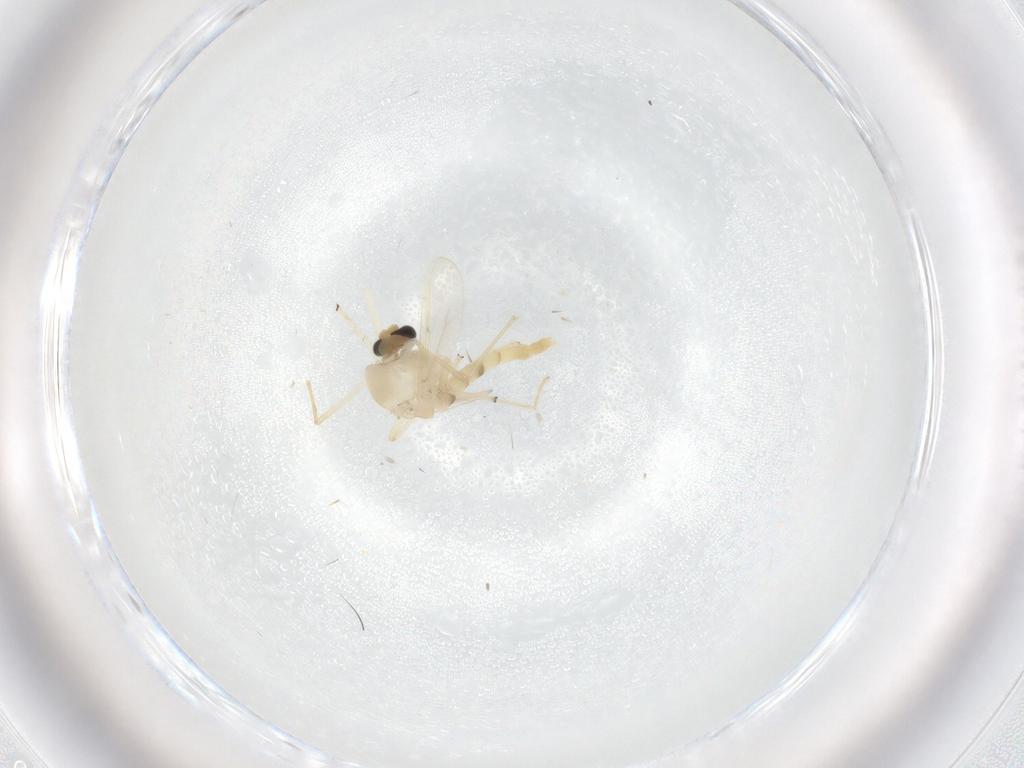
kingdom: Animalia
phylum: Arthropoda
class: Insecta
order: Diptera
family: Chironomidae
